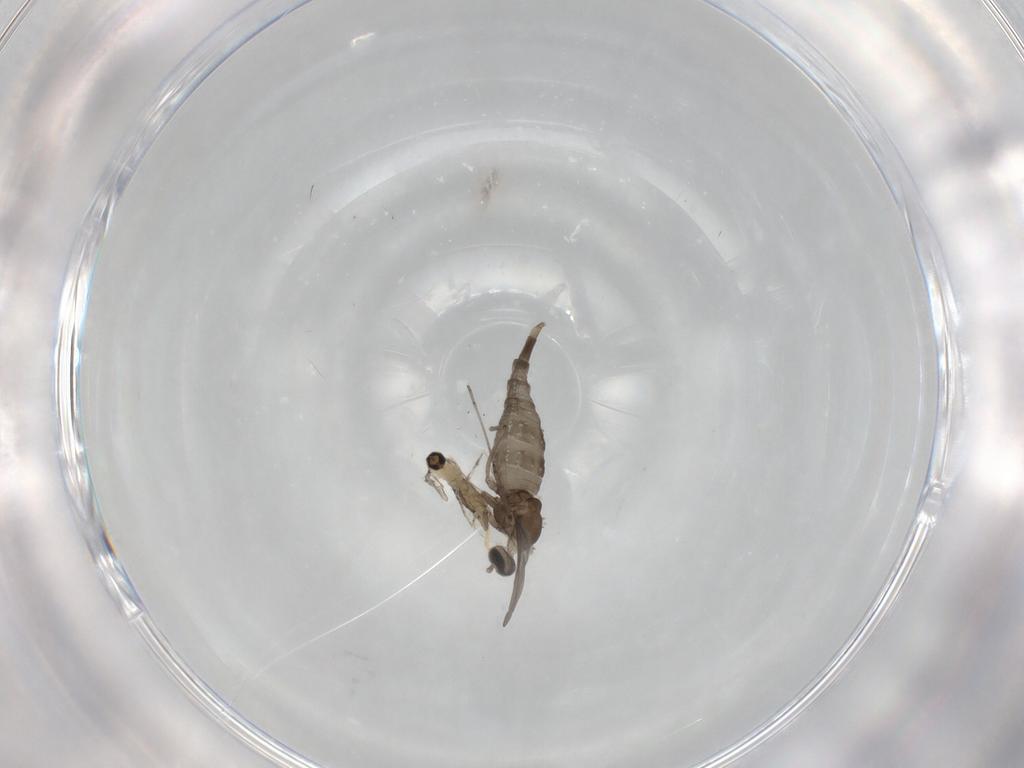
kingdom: Animalia
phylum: Arthropoda
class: Insecta
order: Diptera
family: Cecidomyiidae
